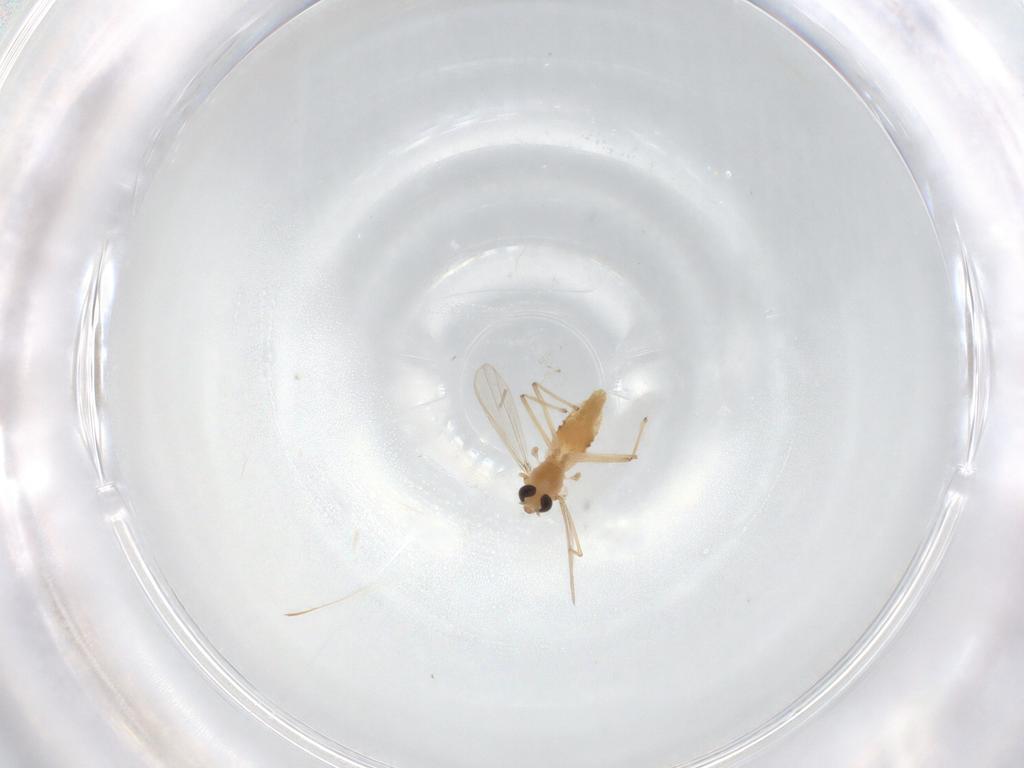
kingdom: Animalia
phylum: Arthropoda
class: Insecta
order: Diptera
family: Chironomidae
